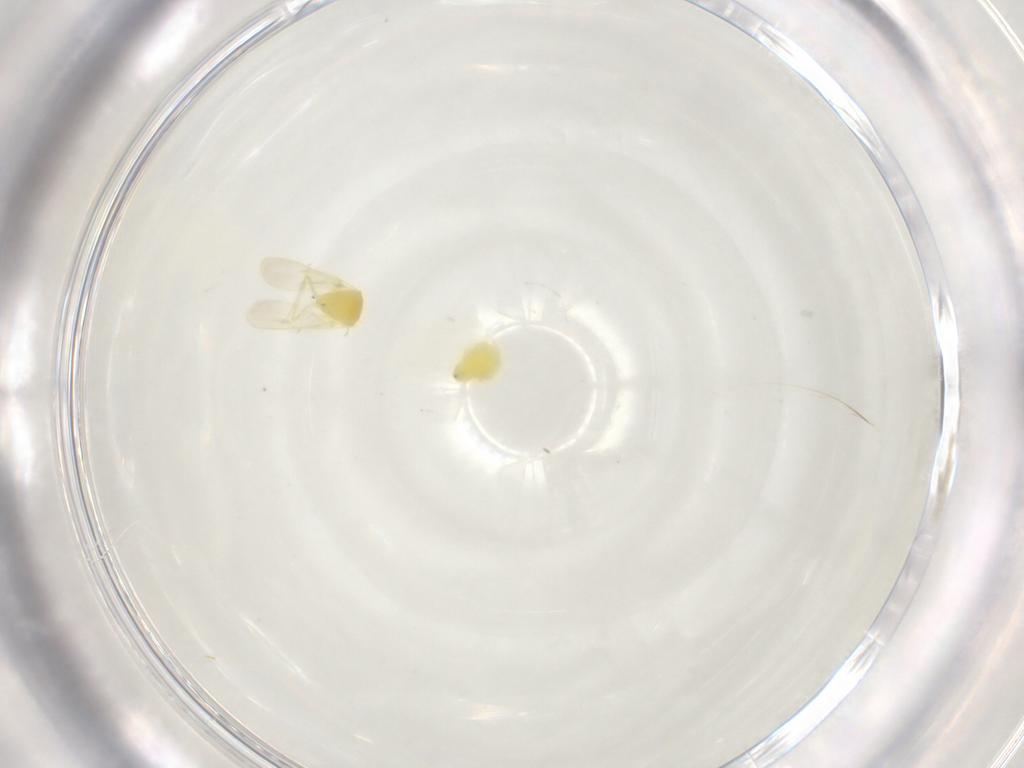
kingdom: Animalia
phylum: Arthropoda
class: Insecta
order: Hemiptera
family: Aleyrodidae
